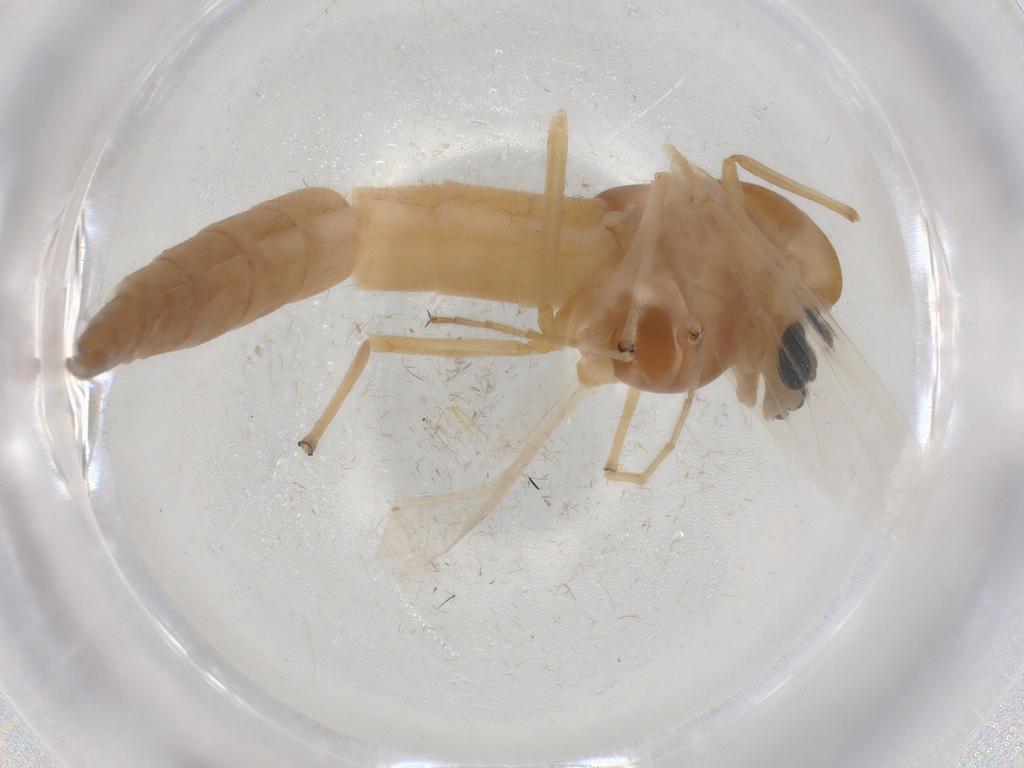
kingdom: Animalia
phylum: Arthropoda
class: Insecta
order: Diptera
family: Chironomidae
